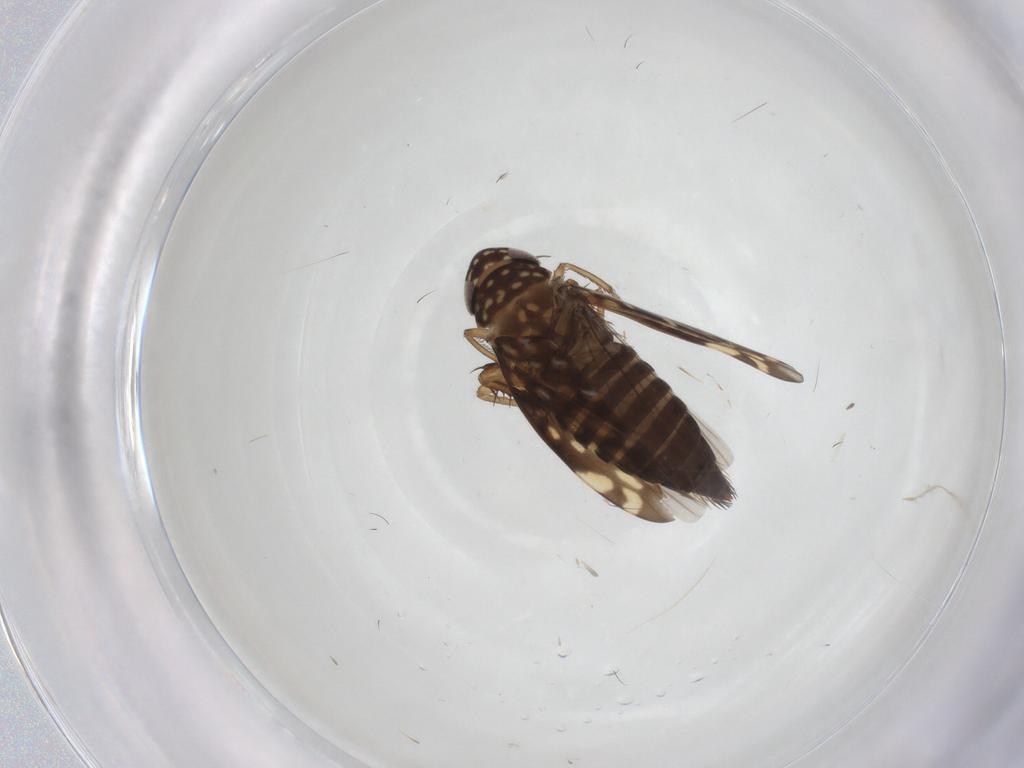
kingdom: Animalia
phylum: Arthropoda
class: Insecta
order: Hemiptera
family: Cicadellidae
